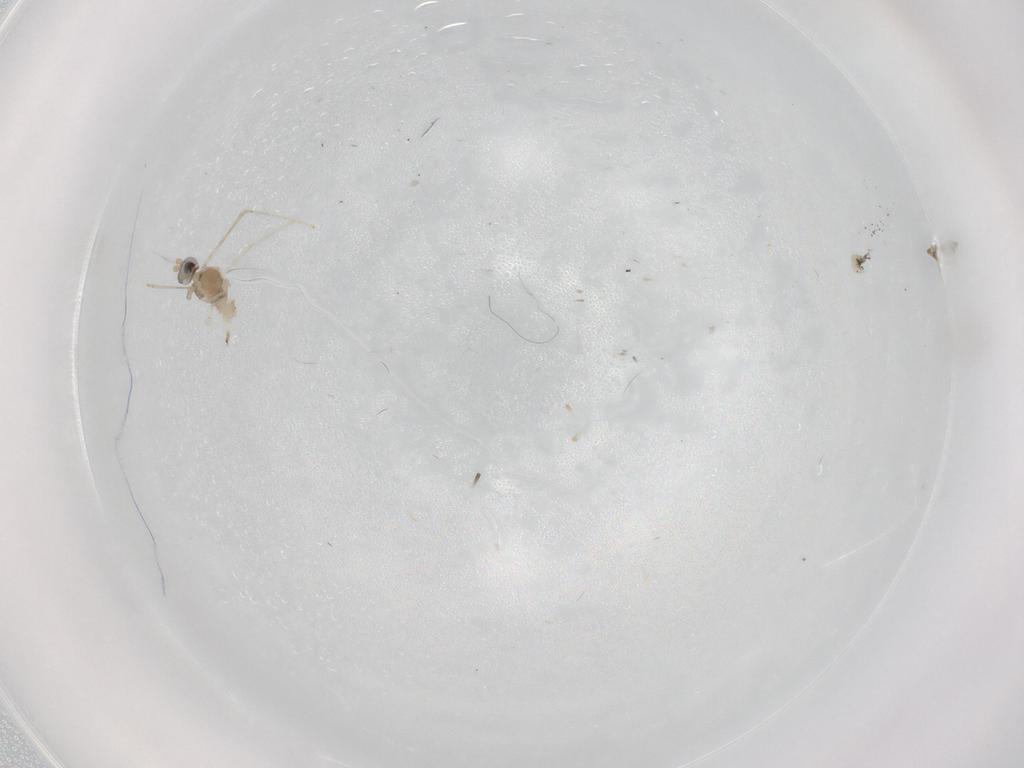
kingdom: Animalia
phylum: Arthropoda
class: Insecta
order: Diptera
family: Cecidomyiidae
